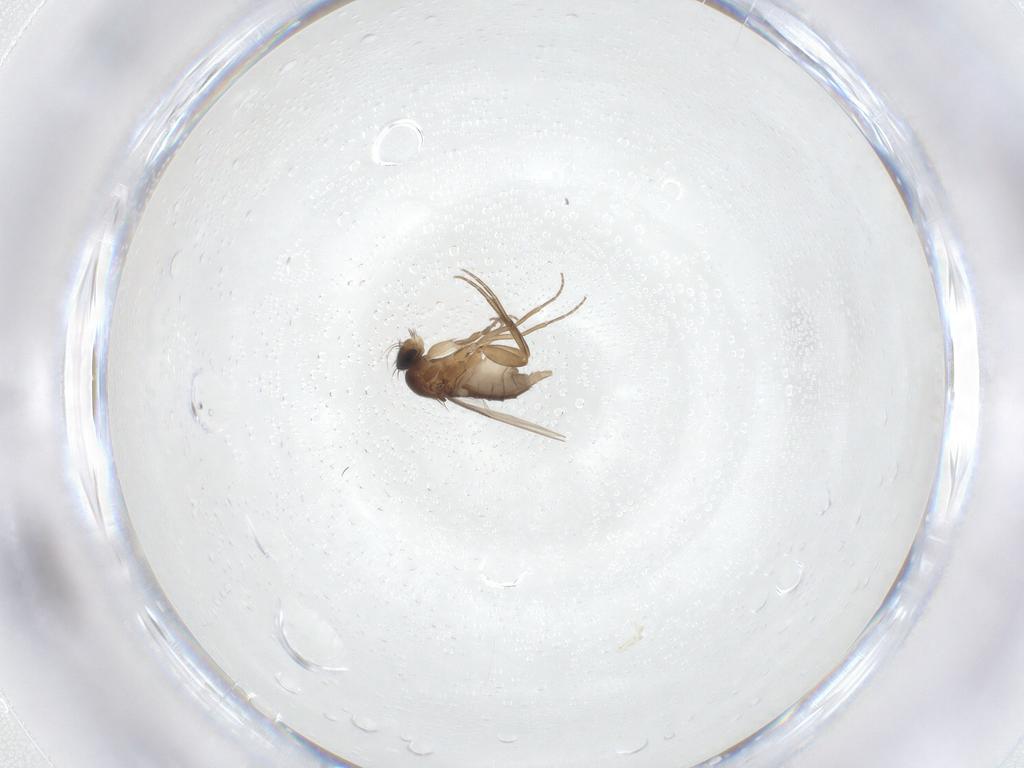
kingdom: Animalia
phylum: Arthropoda
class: Insecta
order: Diptera
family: Phoridae
